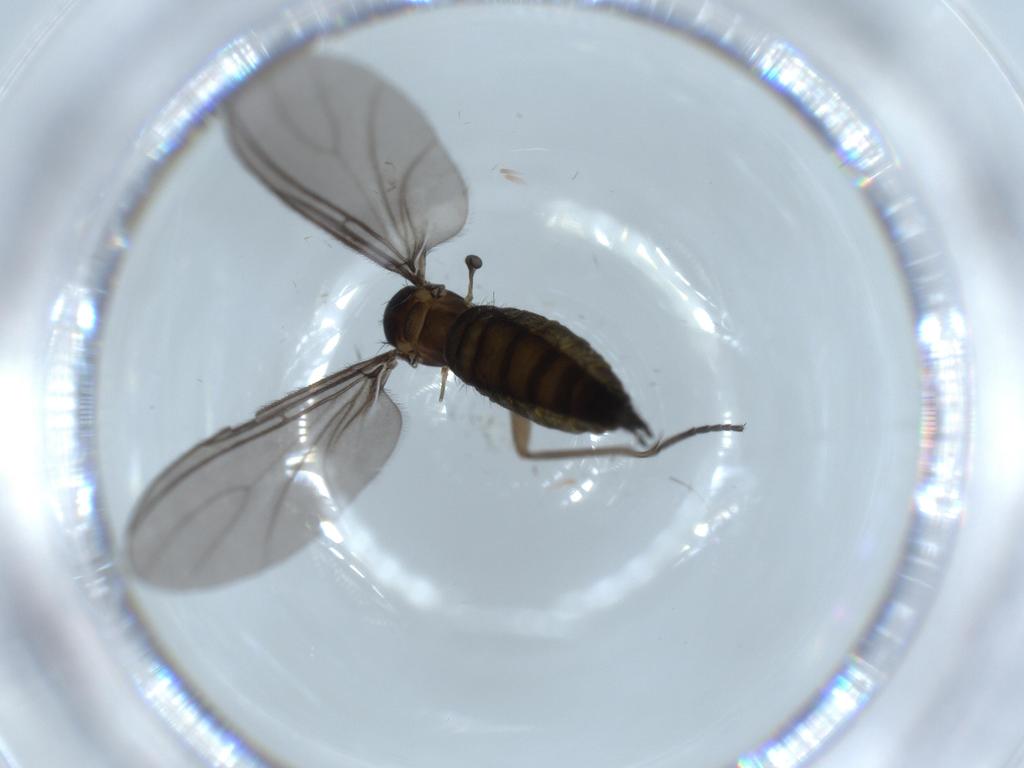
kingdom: Animalia
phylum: Arthropoda
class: Insecta
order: Diptera
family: Sciaridae
